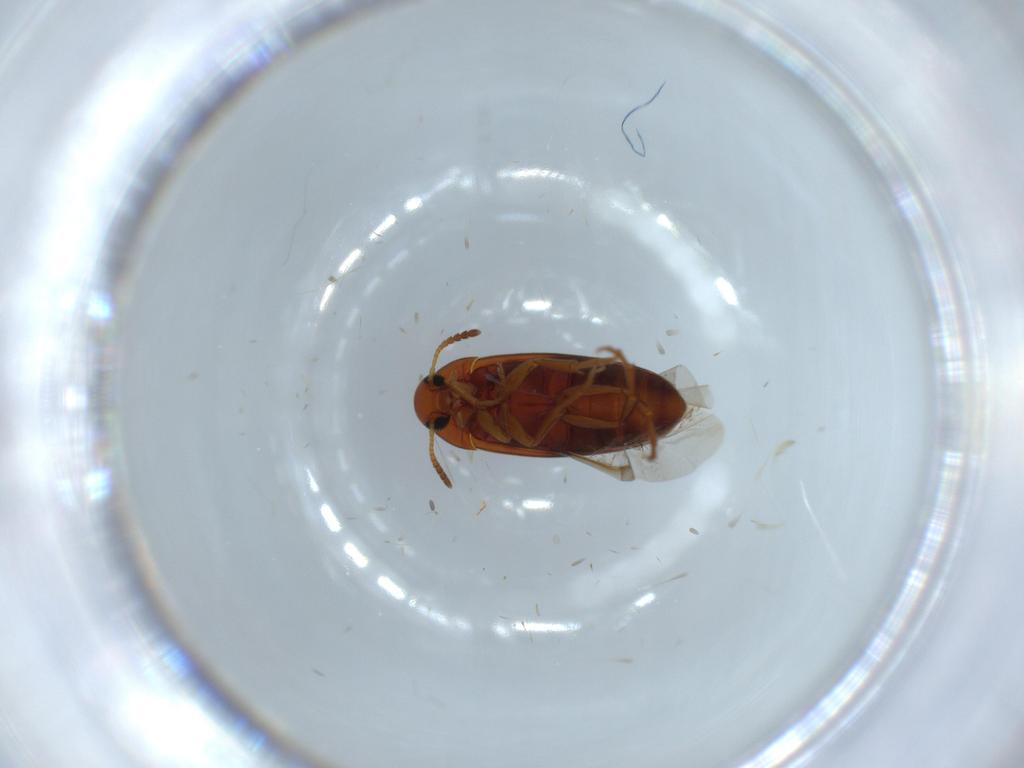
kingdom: Animalia
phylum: Arthropoda
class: Insecta
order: Coleoptera
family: Scraptiidae
